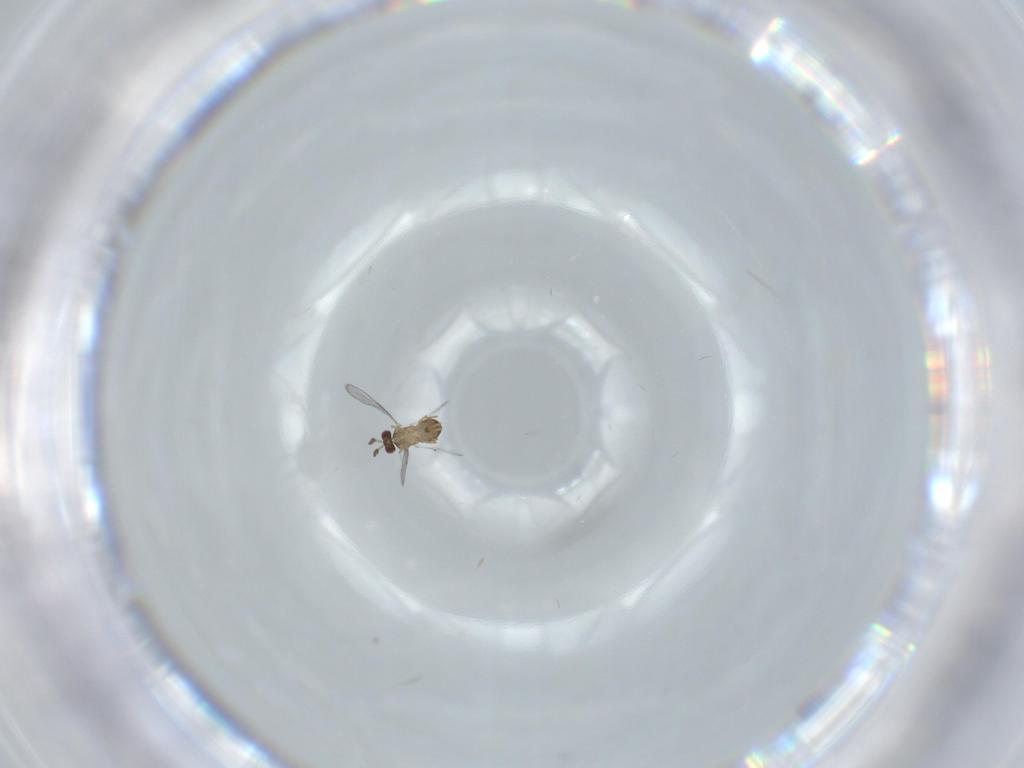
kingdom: Animalia
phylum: Arthropoda
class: Insecta
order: Hymenoptera
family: Trichogrammatidae
